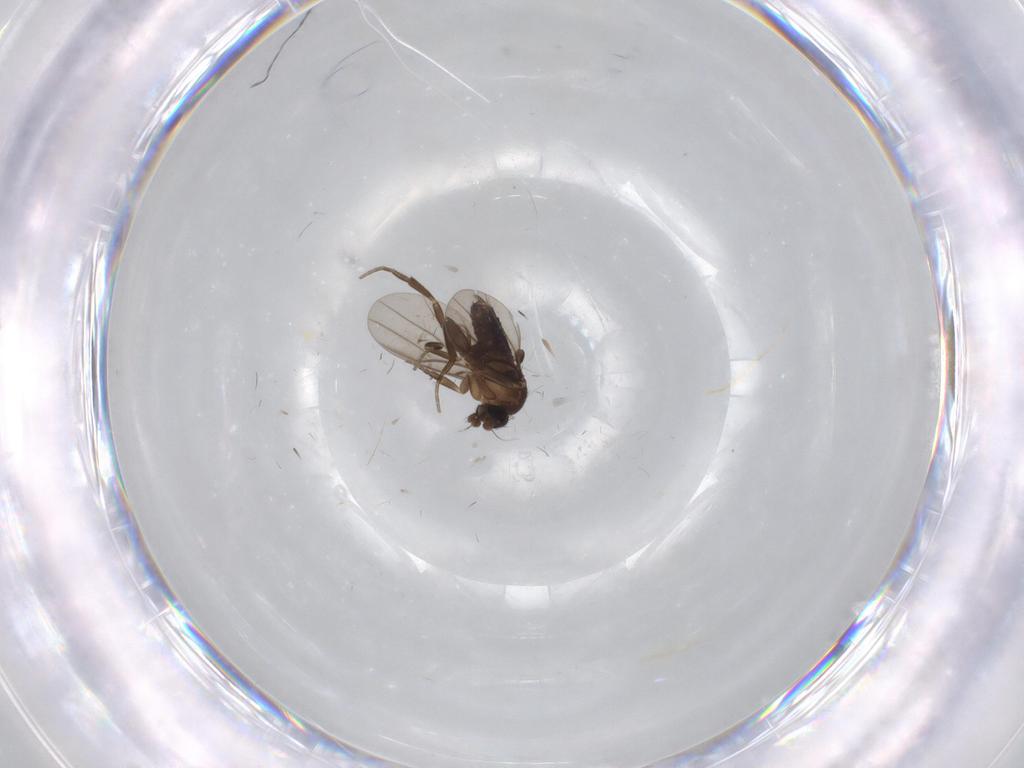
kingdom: Animalia
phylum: Arthropoda
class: Insecta
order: Diptera
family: Phoridae
